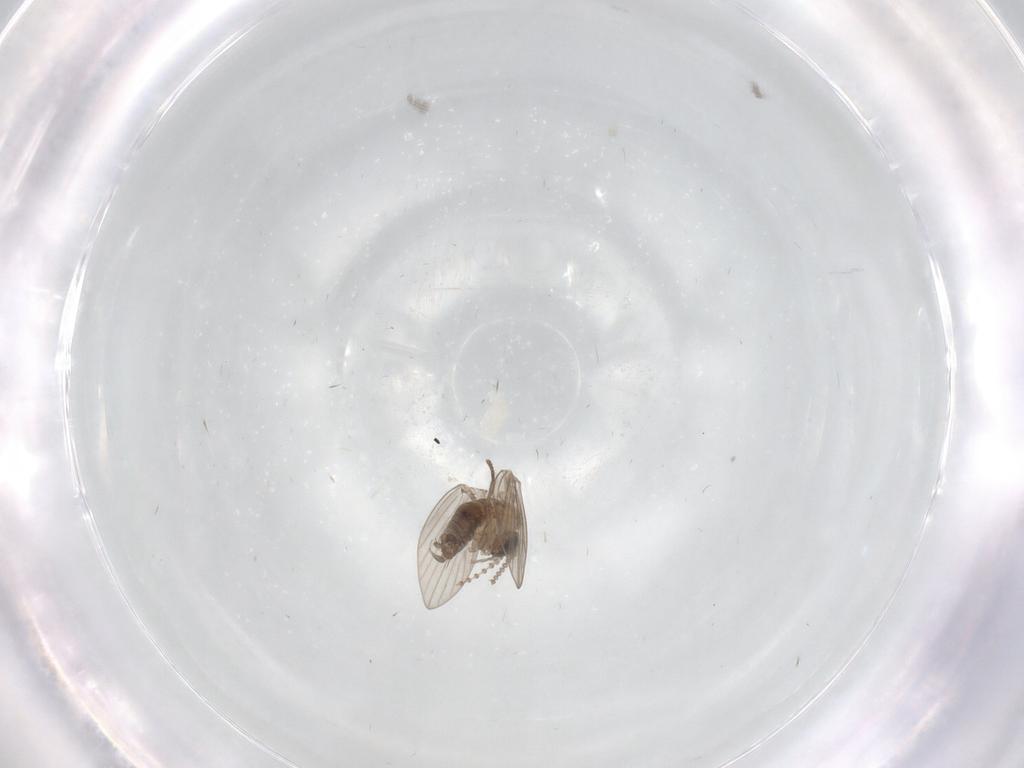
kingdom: Animalia
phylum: Arthropoda
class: Insecta
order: Diptera
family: Psychodidae
